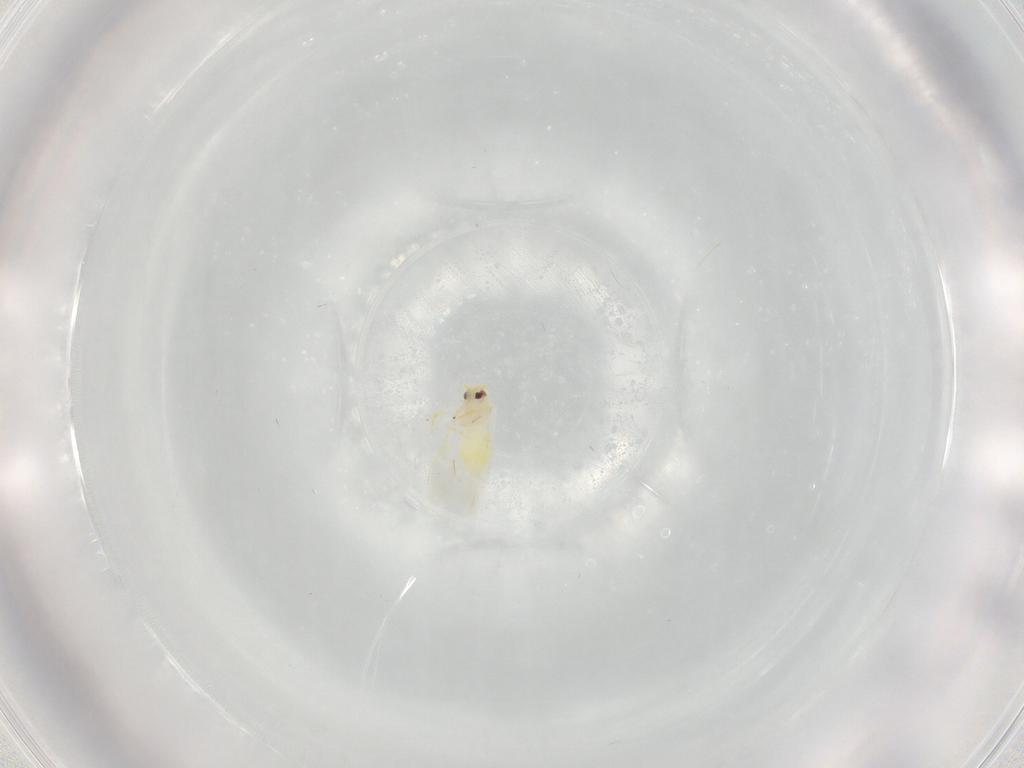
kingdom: Animalia
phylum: Arthropoda
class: Insecta
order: Hemiptera
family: Aleyrodidae
